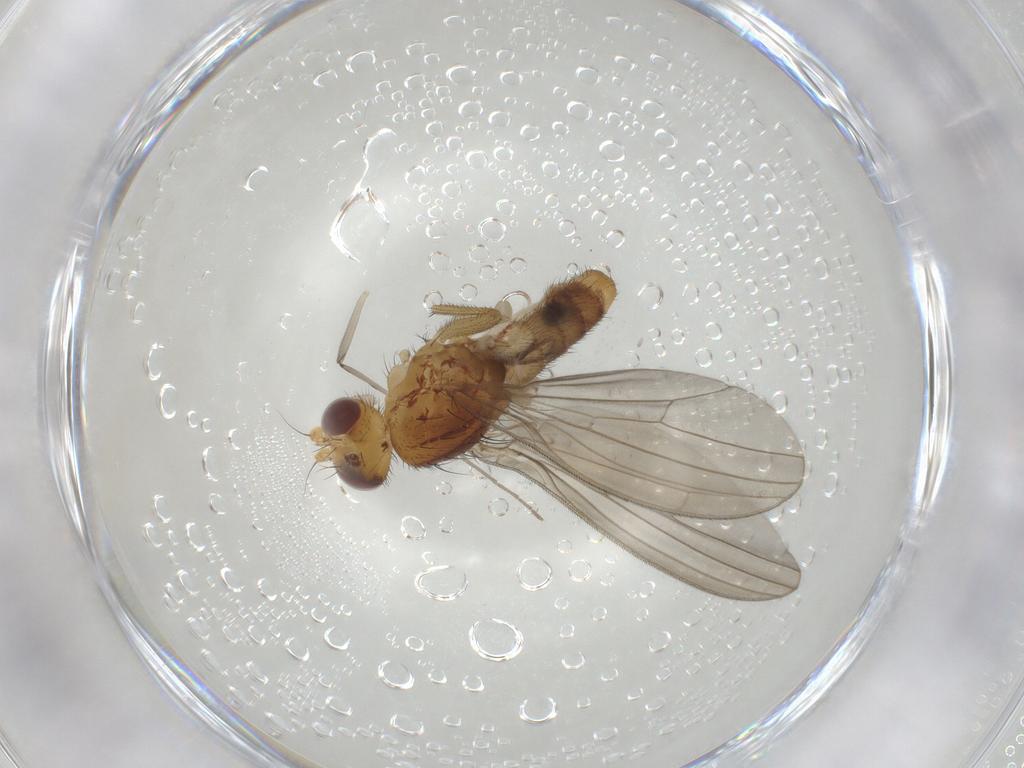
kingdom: Animalia
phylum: Arthropoda
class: Insecta
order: Diptera
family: Natalimyzidae
